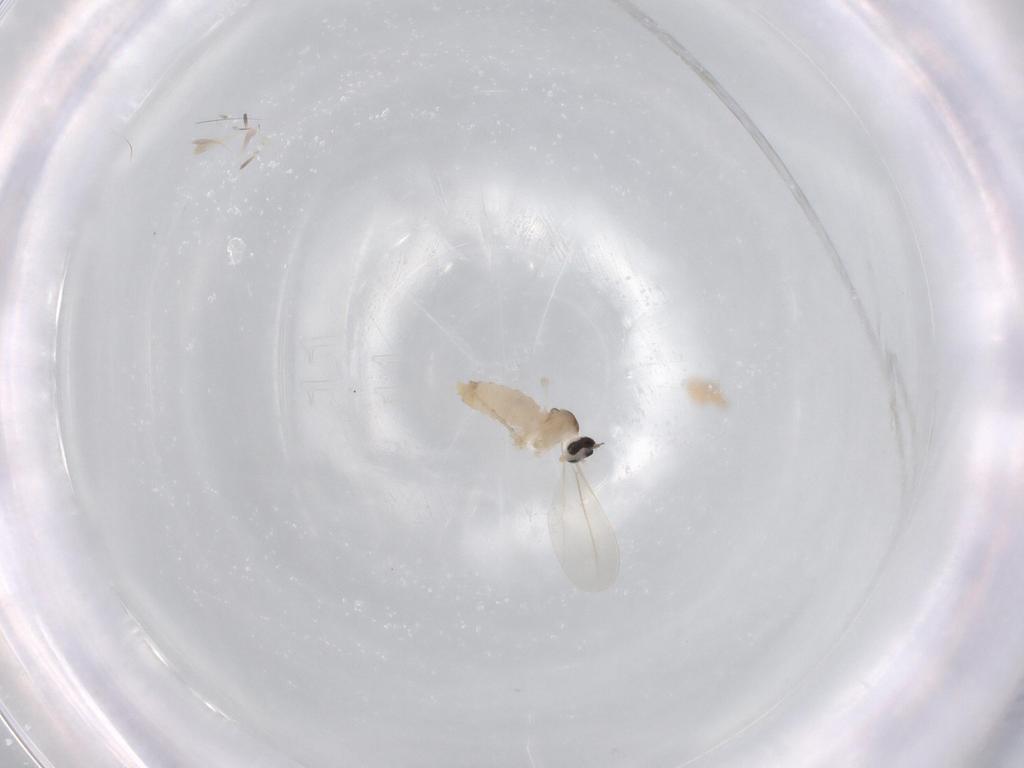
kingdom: Animalia
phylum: Arthropoda
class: Insecta
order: Diptera
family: Cecidomyiidae
